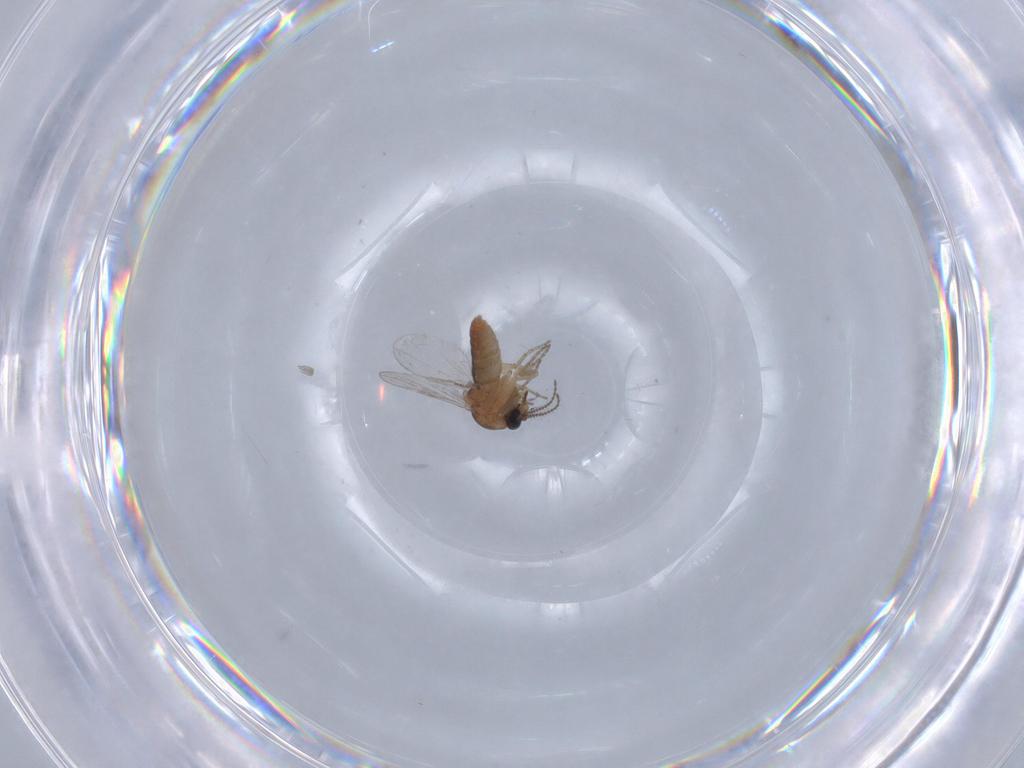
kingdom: Animalia
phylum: Arthropoda
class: Insecta
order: Diptera
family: Ceratopogonidae
